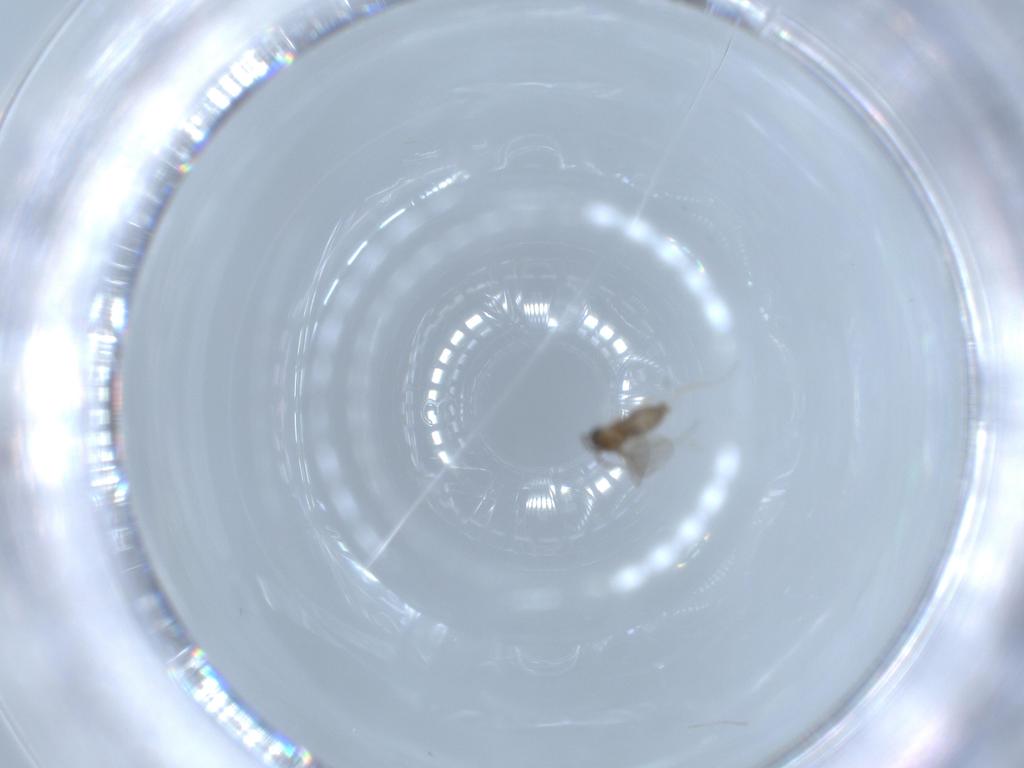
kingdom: Animalia
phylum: Arthropoda
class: Insecta
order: Diptera
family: Cecidomyiidae
